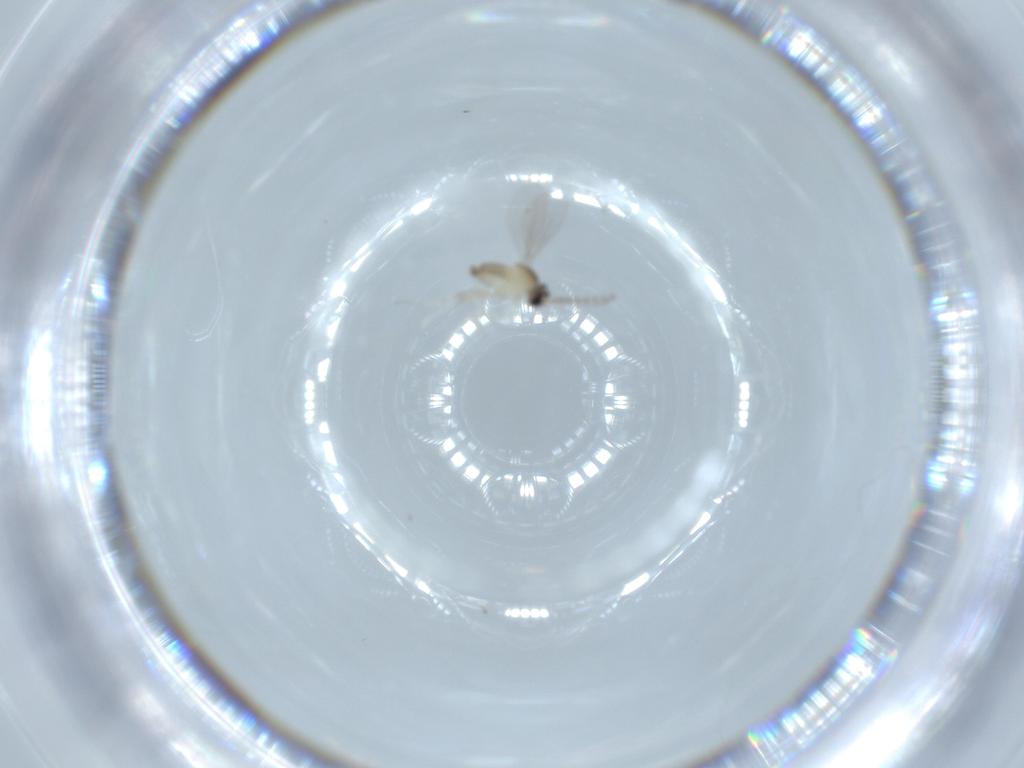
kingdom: Animalia
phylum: Arthropoda
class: Insecta
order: Diptera
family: Cecidomyiidae
